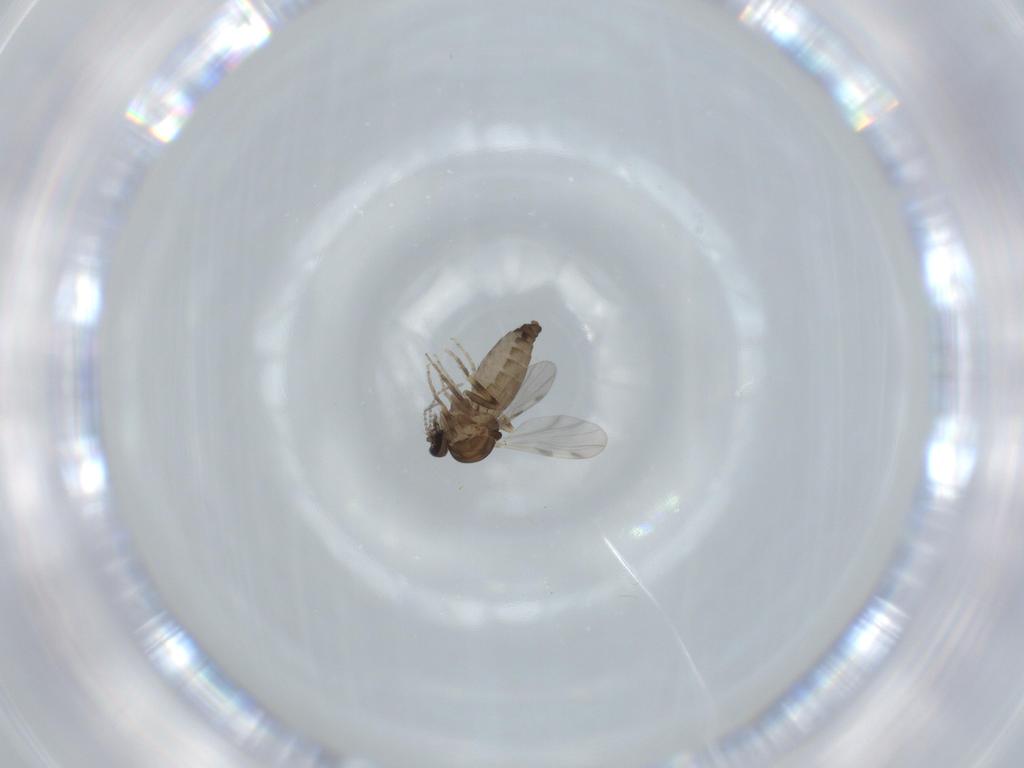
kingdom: Animalia
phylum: Arthropoda
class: Insecta
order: Diptera
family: Ceratopogonidae
